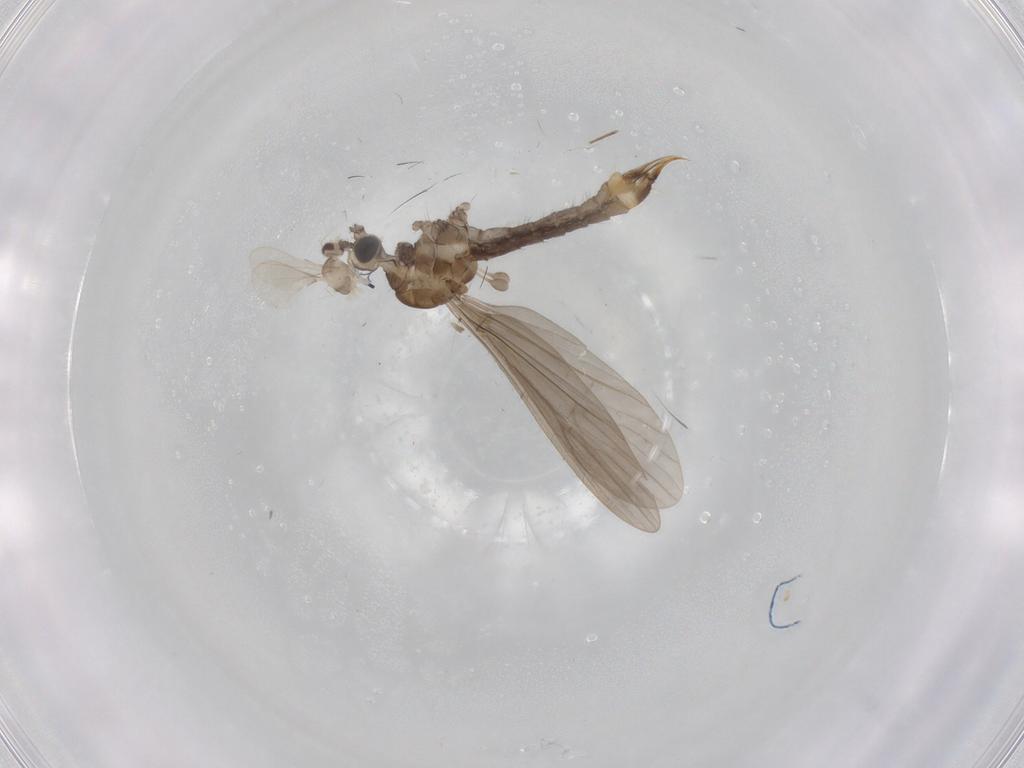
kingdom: Animalia
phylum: Arthropoda
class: Insecta
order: Diptera
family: Limoniidae
